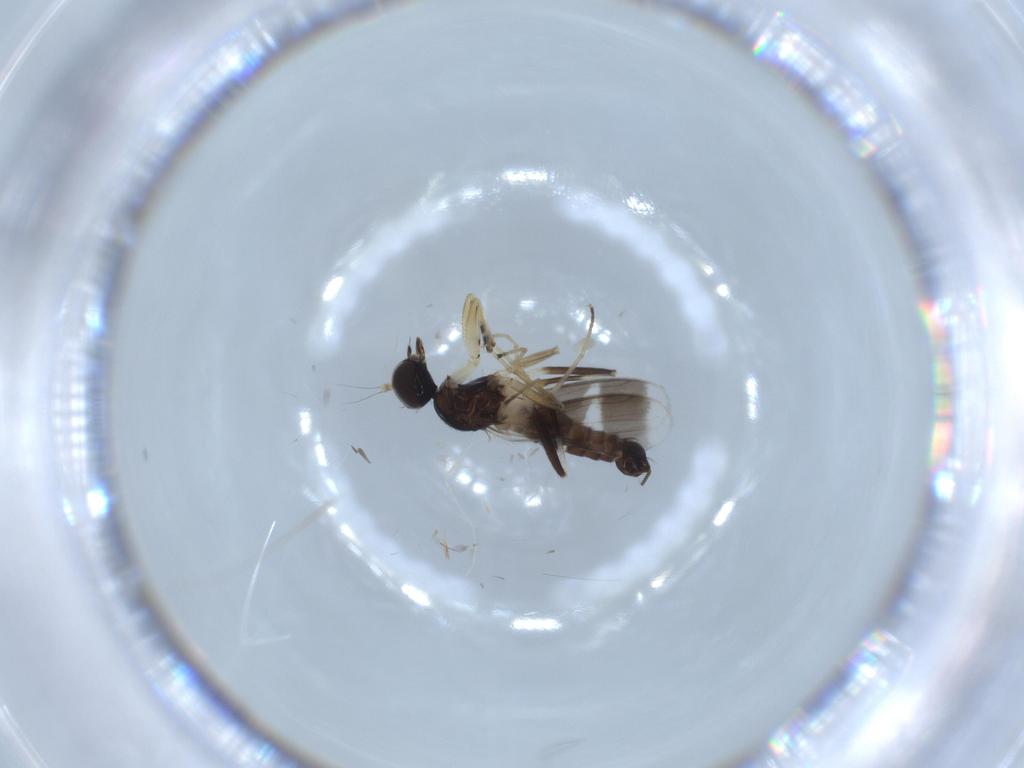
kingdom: Animalia
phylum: Arthropoda
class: Insecta
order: Diptera
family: Hybotidae
